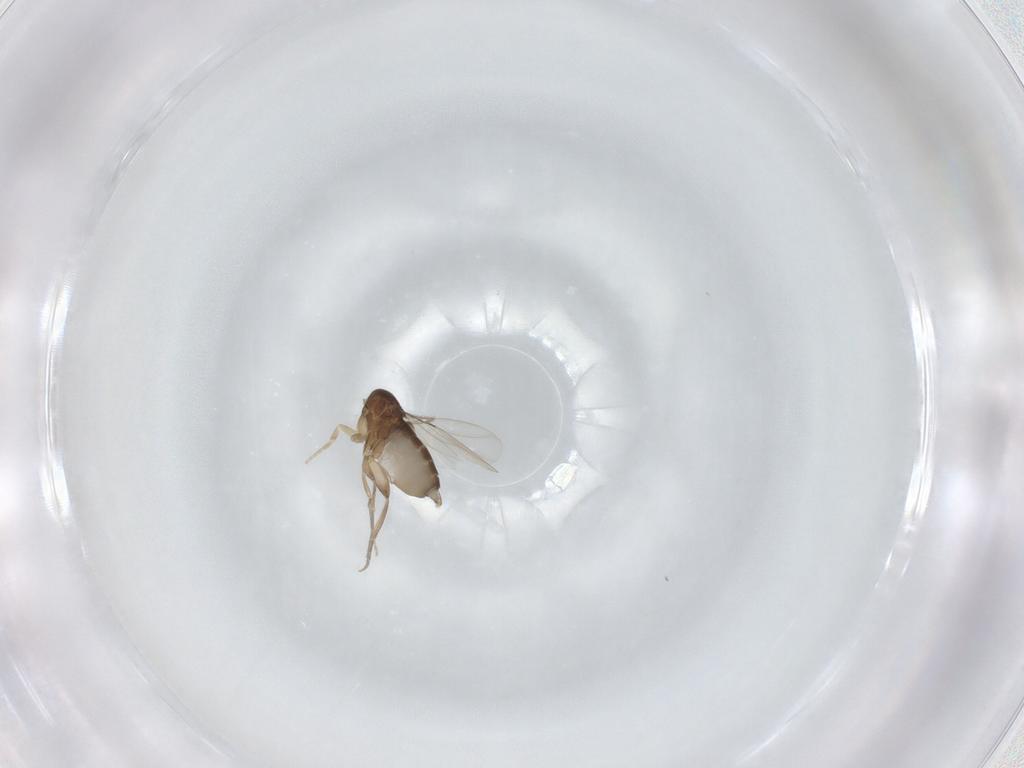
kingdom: Animalia
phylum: Arthropoda
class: Insecta
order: Diptera
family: Phoridae
